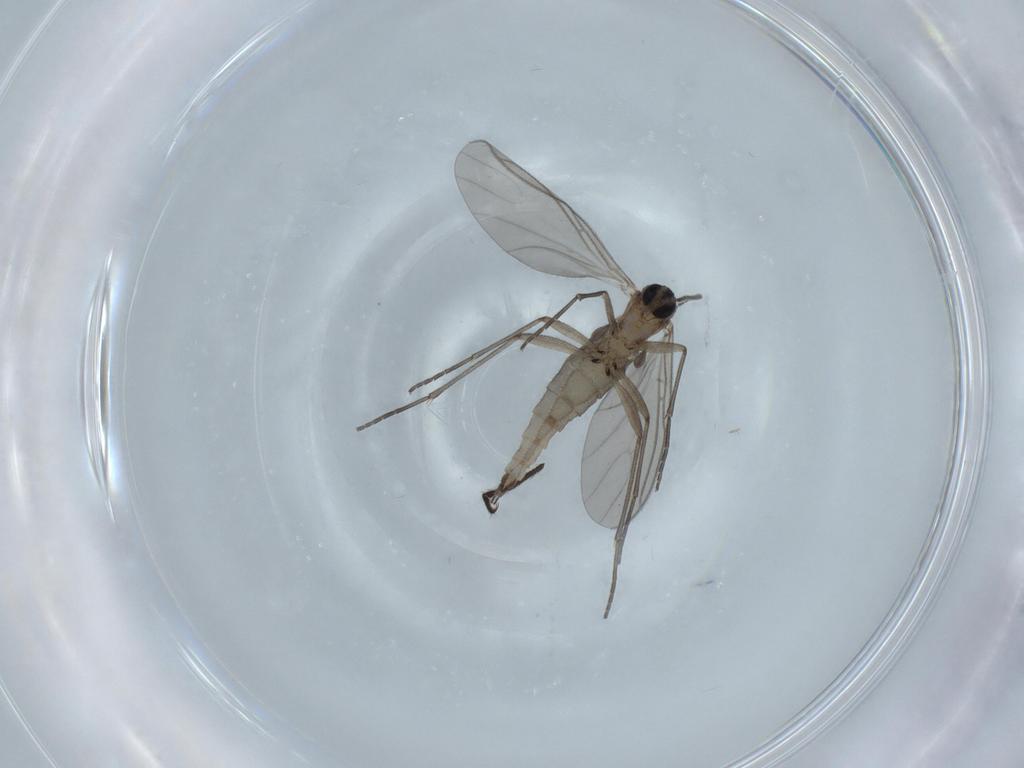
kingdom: Animalia
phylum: Arthropoda
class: Insecta
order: Diptera
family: Sciaridae
